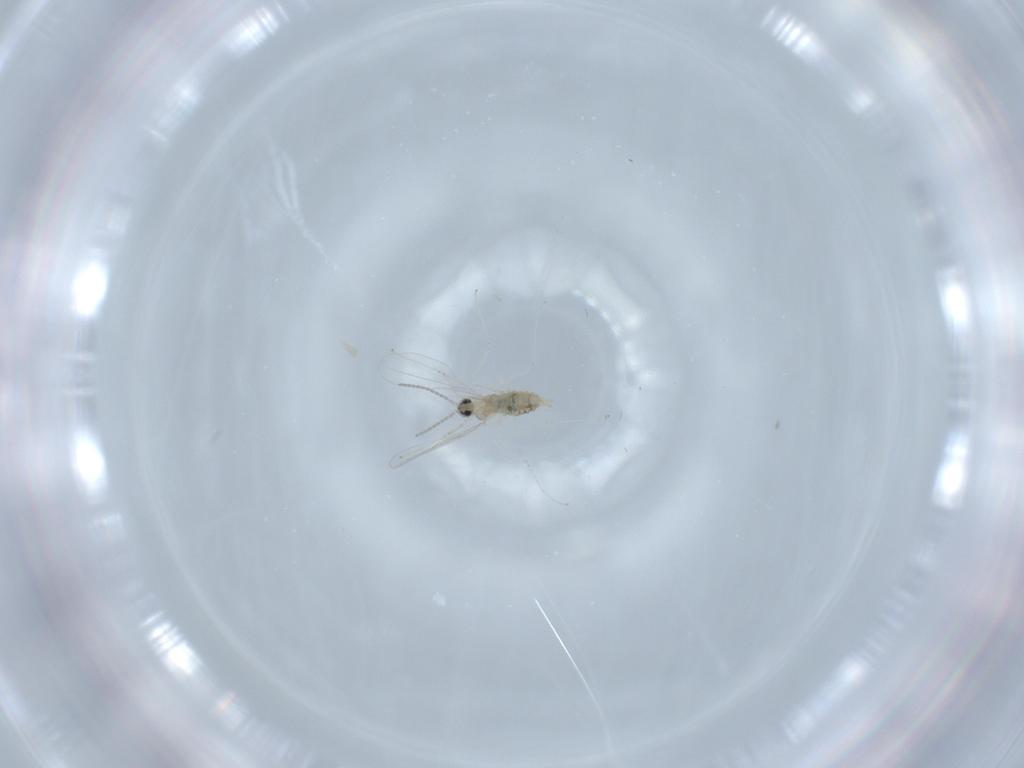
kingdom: Animalia
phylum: Arthropoda
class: Insecta
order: Diptera
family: Cecidomyiidae
